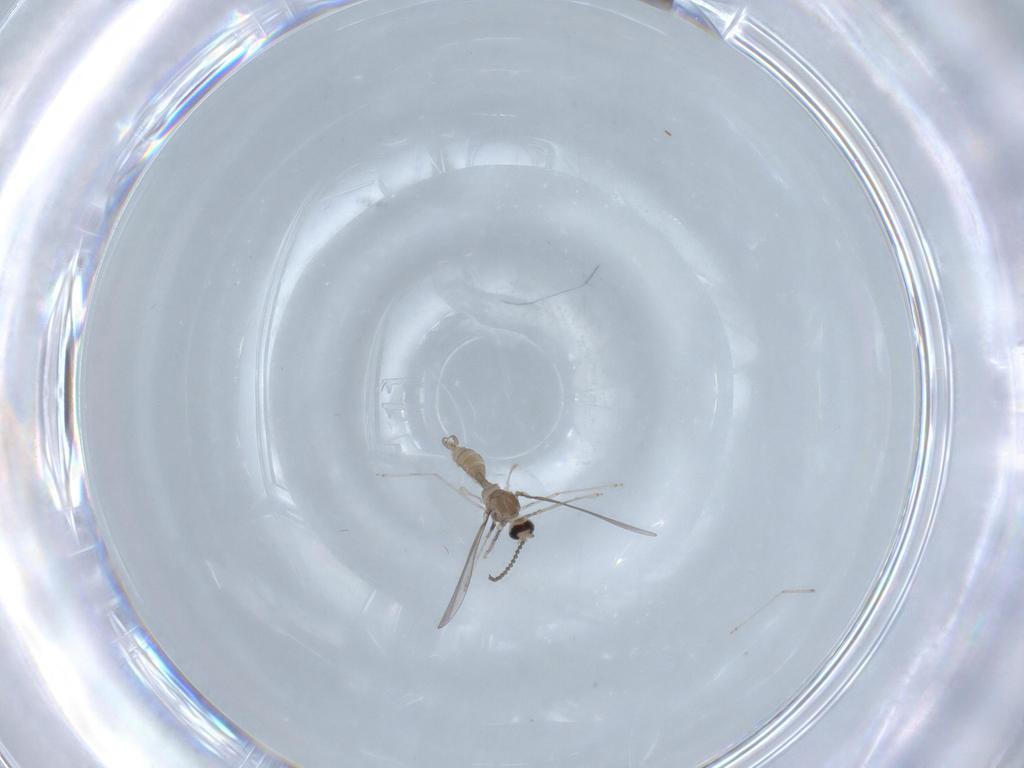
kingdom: Animalia
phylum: Arthropoda
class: Insecta
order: Diptera
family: Cecidomyiidae
